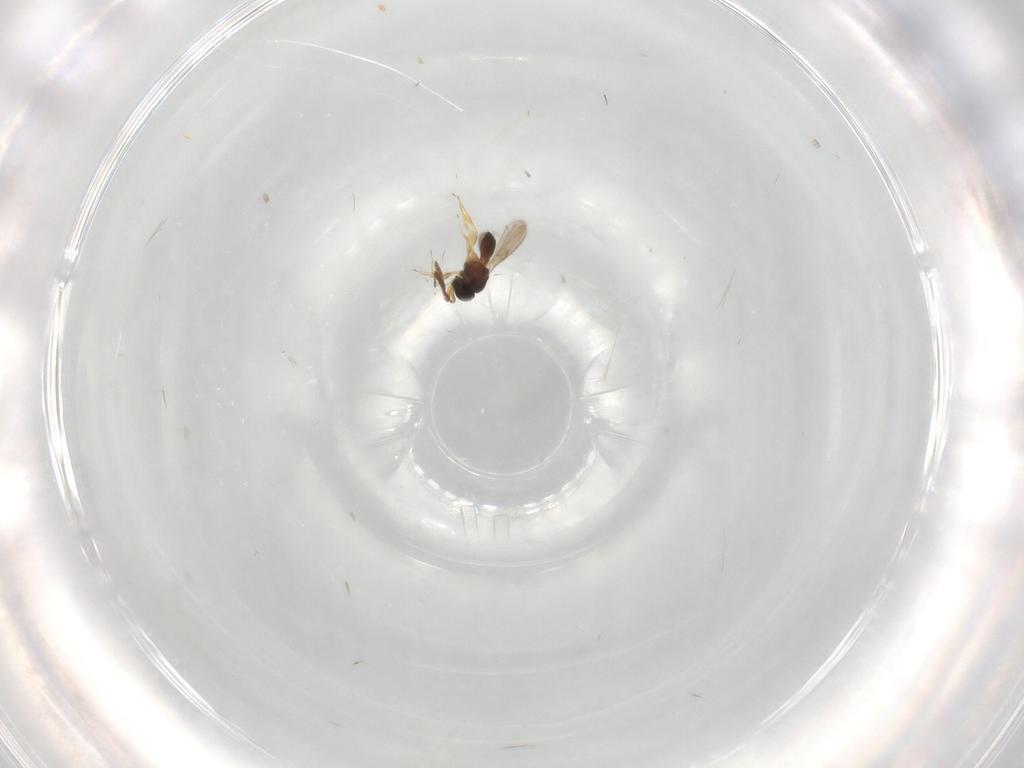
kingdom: Animalia
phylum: Arthropoda
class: Insecta
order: Hymenoptera
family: Scelionidae
